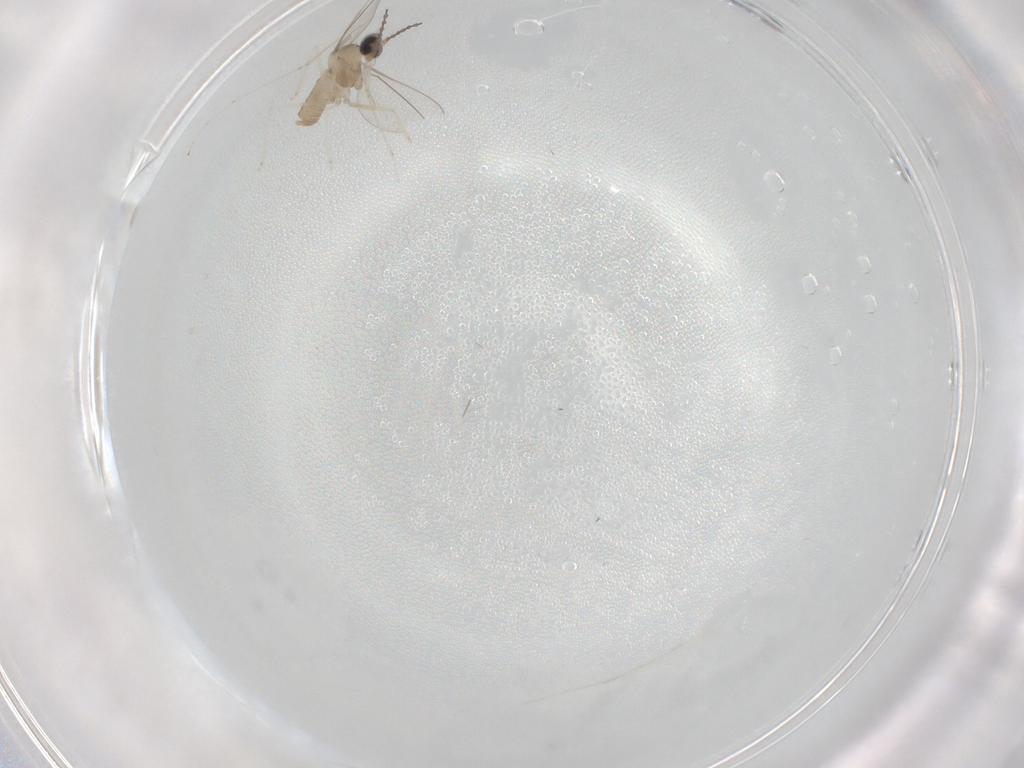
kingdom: Animalia
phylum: Arthropoda
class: Insecta
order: Diptera
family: Cecidomyiidae
